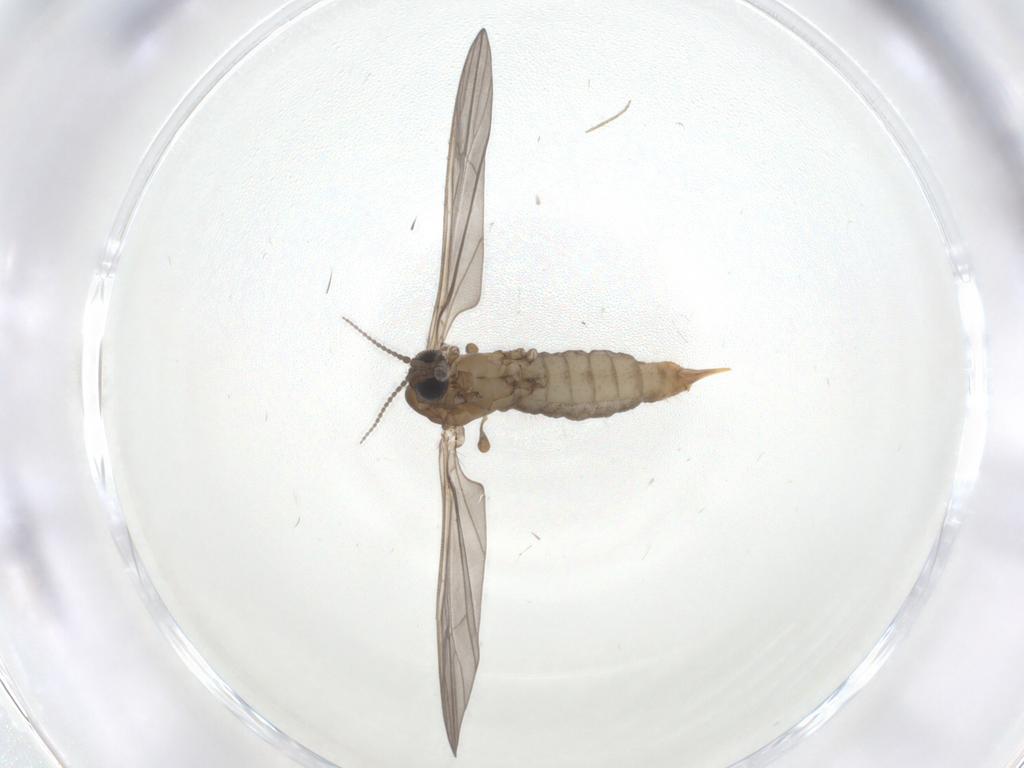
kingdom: Animalia
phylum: Arthropoda
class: Insecta
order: Diptera
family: Limoniidae
